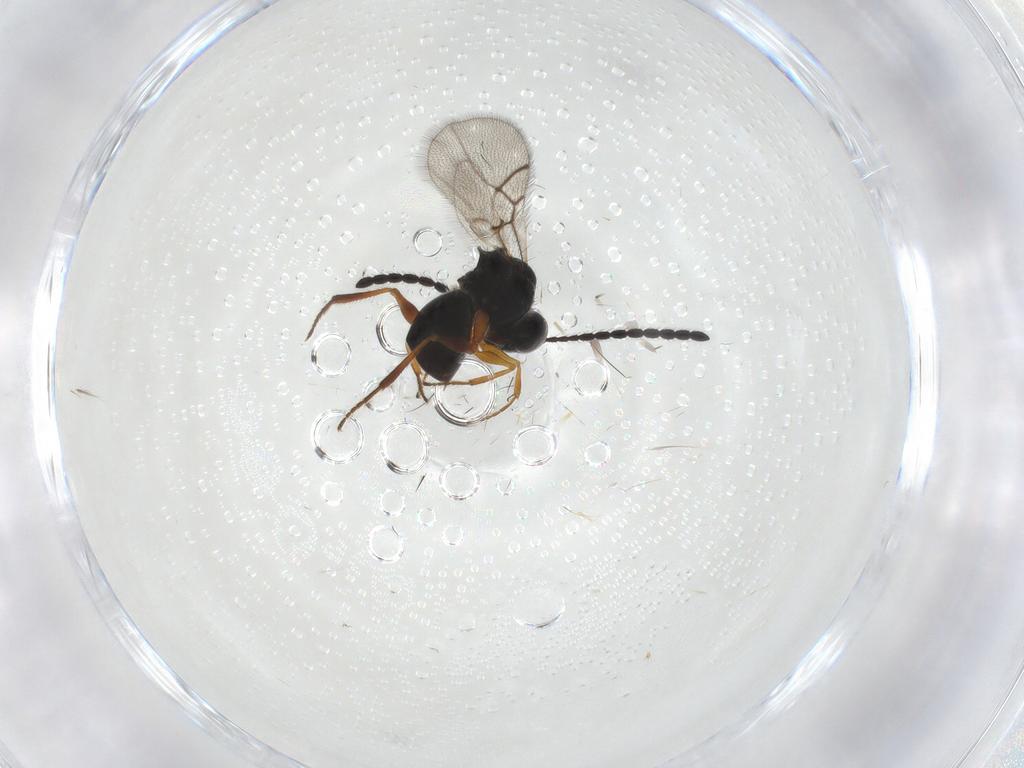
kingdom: Animalia
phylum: Arthropoda
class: Insecta
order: Hymenoptera
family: Figitidae
